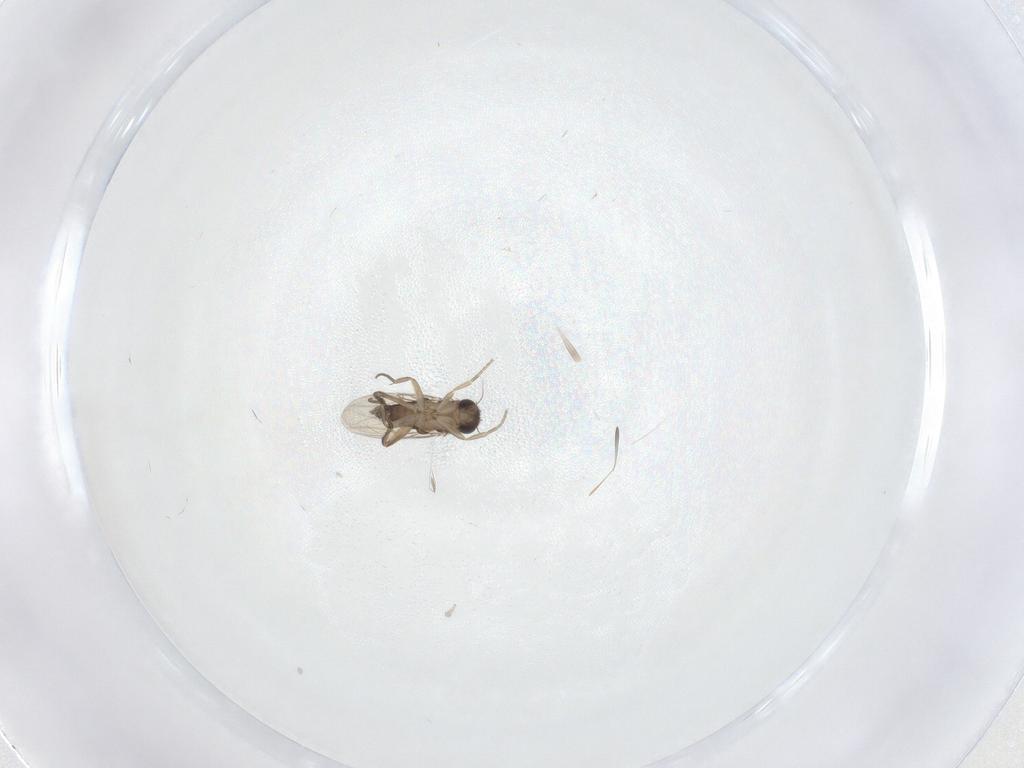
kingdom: Animalia
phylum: Arthropoda
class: Insecta
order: Diptera
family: Phoridae
